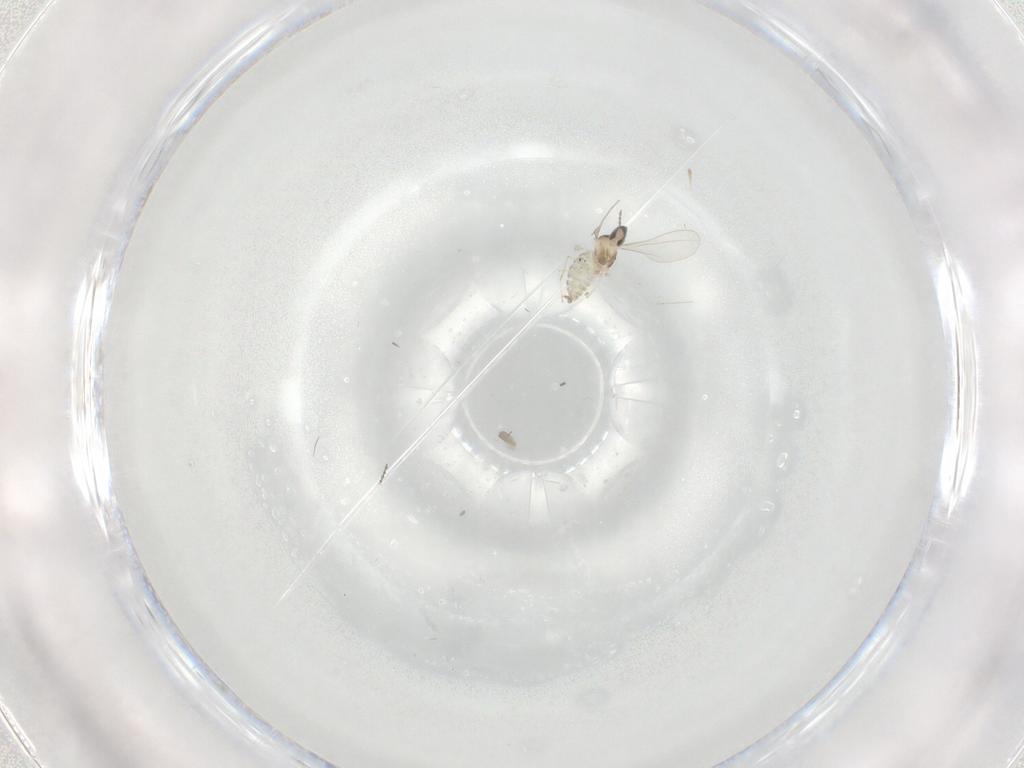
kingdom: Animalia
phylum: Arthropoda
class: Insecta
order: Diptera
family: Cecidomyiidae
